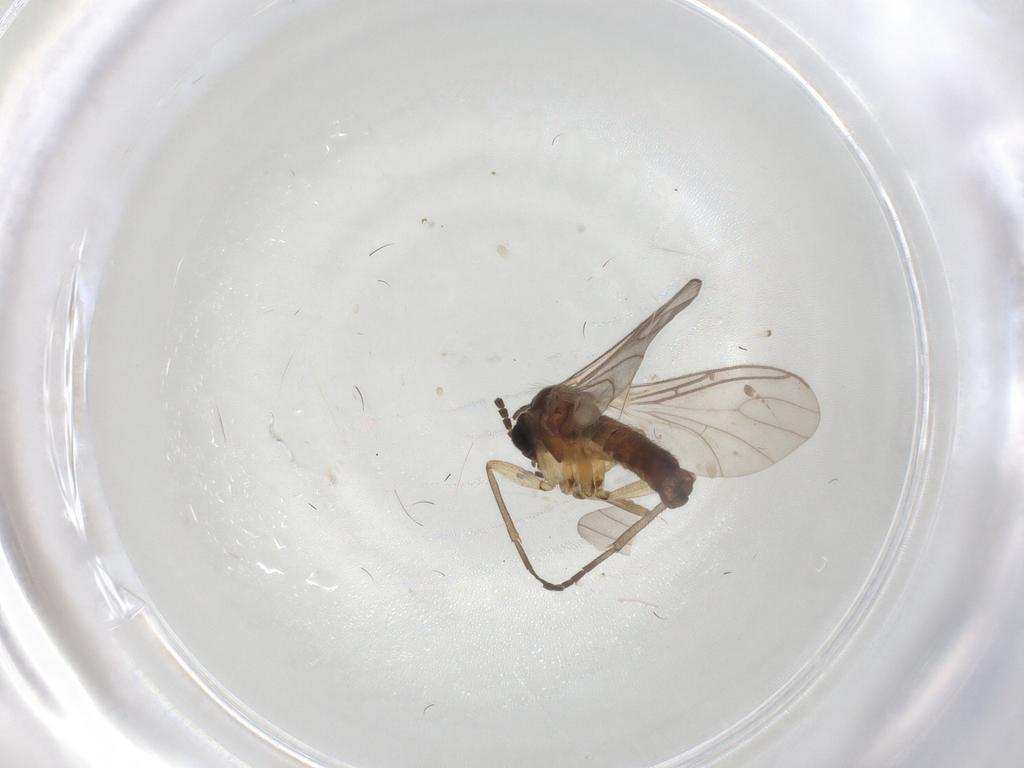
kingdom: Animalia
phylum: Arthropoda
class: Insecta
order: Diptera
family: Sciaridae
